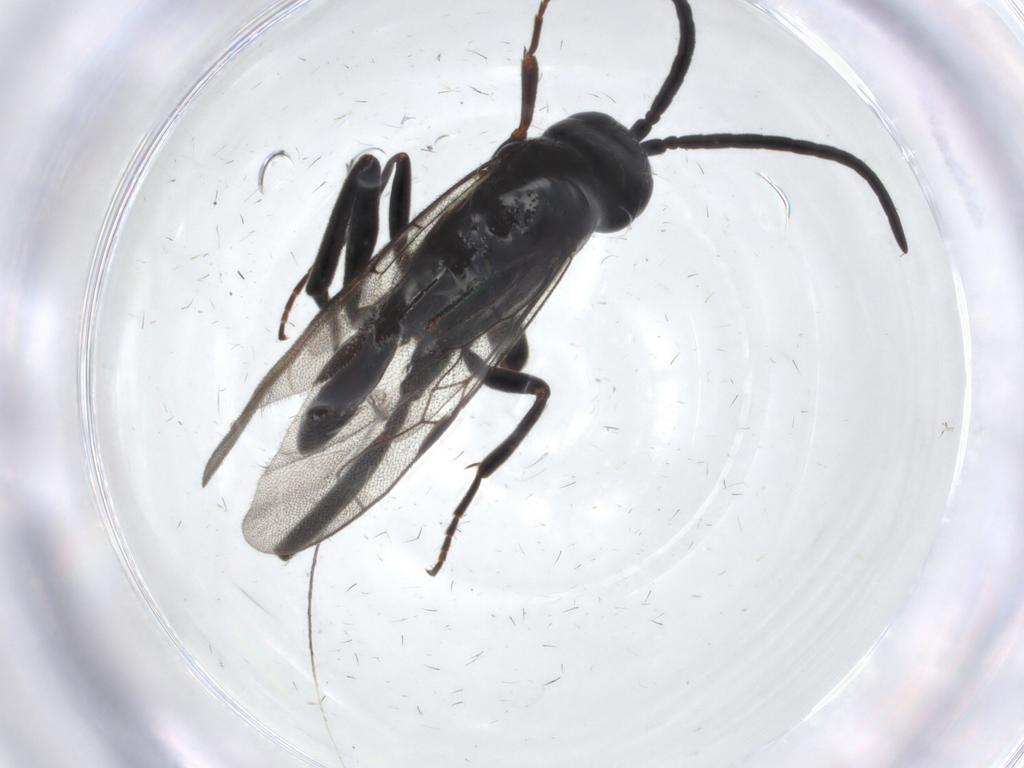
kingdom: Animalia
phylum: Arthropoda
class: Insecta
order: Hymenoptera
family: Evaniidae
